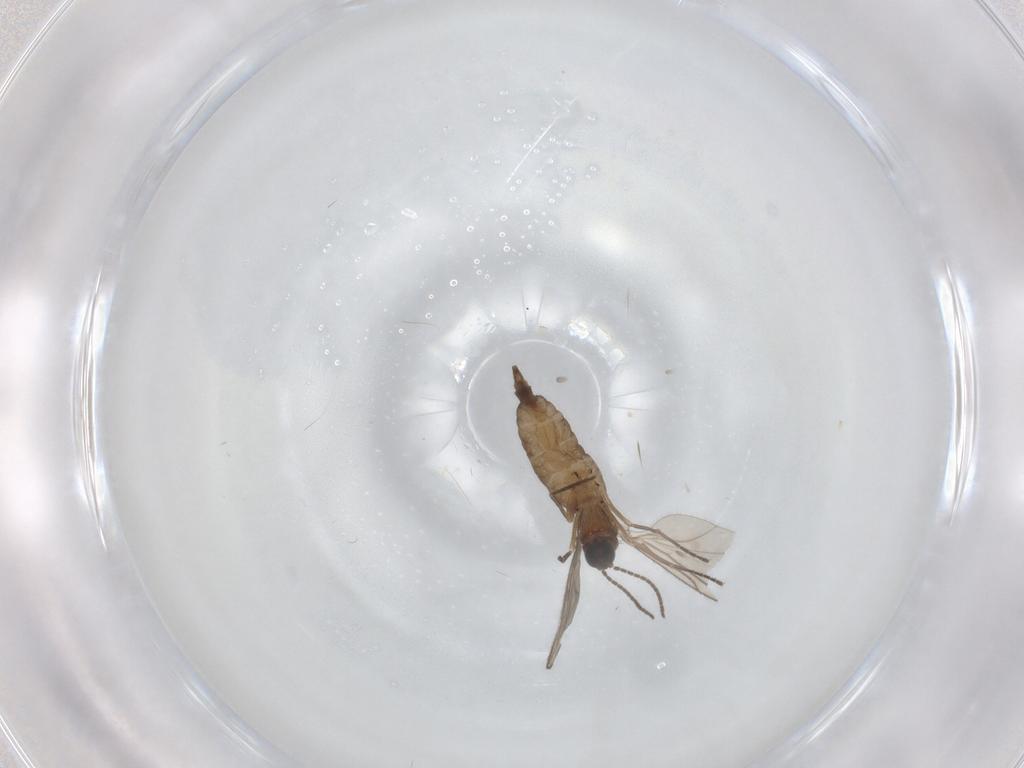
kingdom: Animalia
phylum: Arthropoda
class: Insecta
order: Diptera
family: Sciaridae
